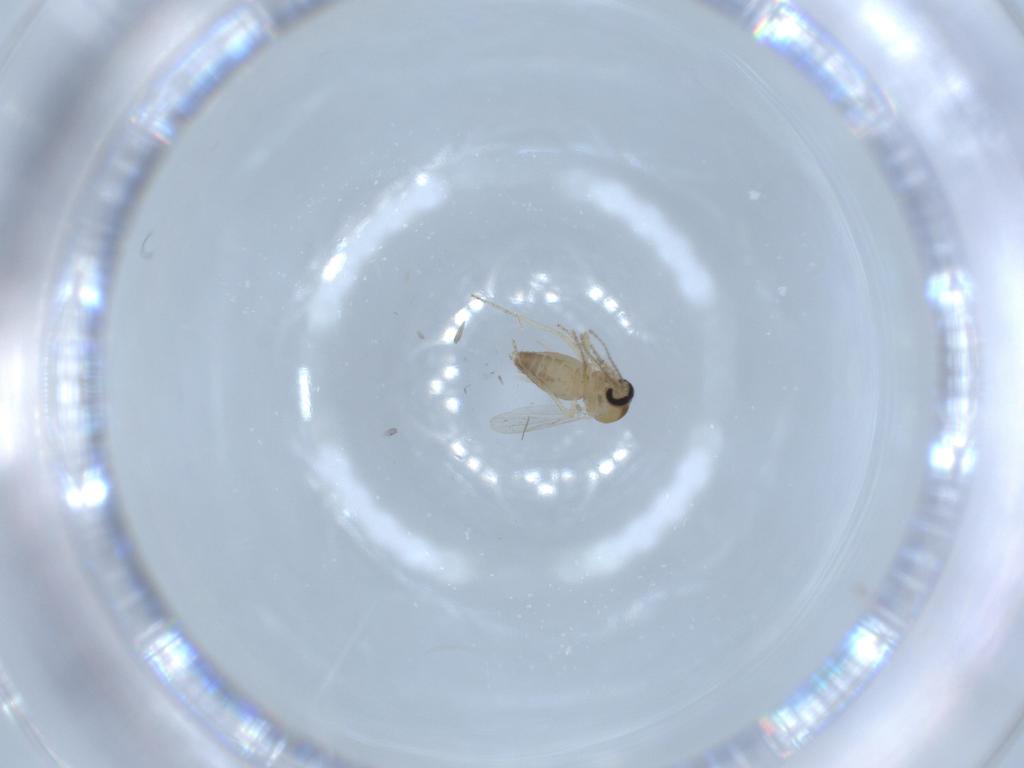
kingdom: Animalia
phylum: Arthropoda
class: Insecta
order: Diptera
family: Ceratopogonidae
